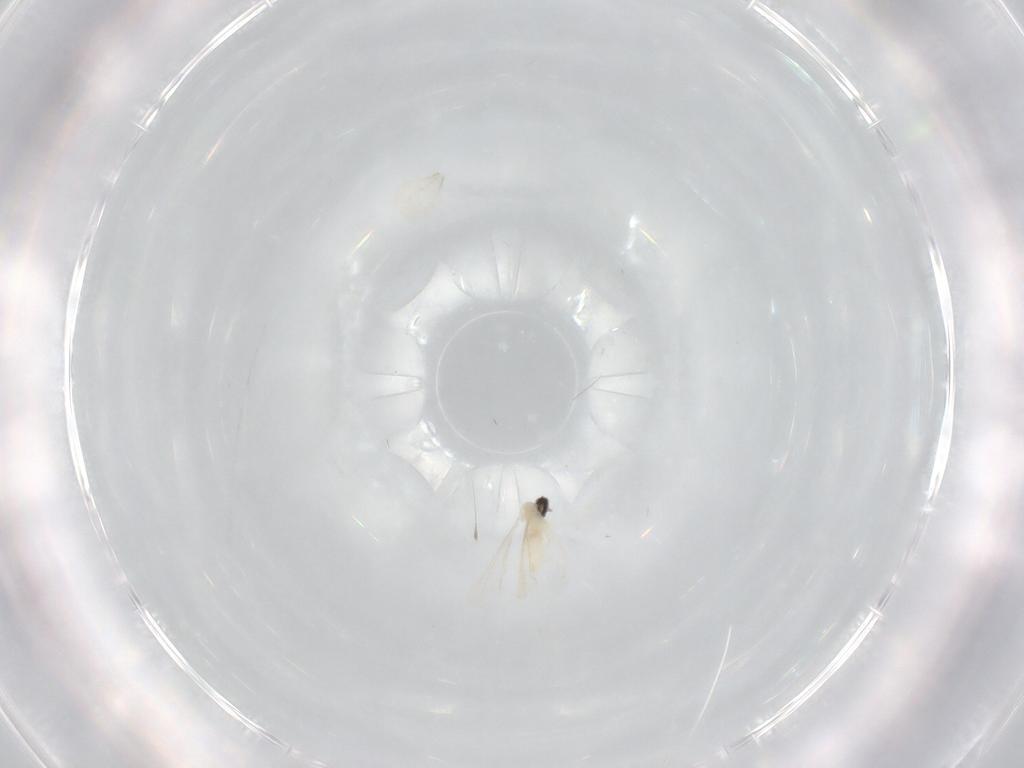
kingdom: Animalia
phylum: Arthropoda
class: Insecta
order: Diptera
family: Cecidomyiidae
